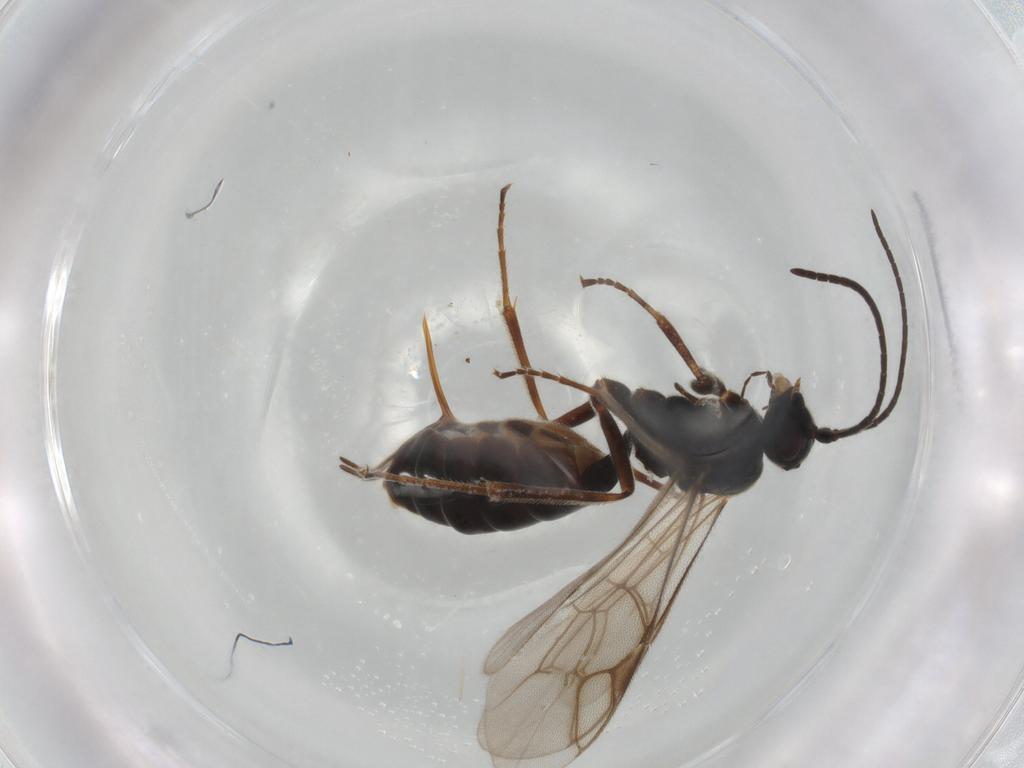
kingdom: Animalia
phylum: Arthropoda
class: Insecta
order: Hymenoptera
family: Ichneumonidae
